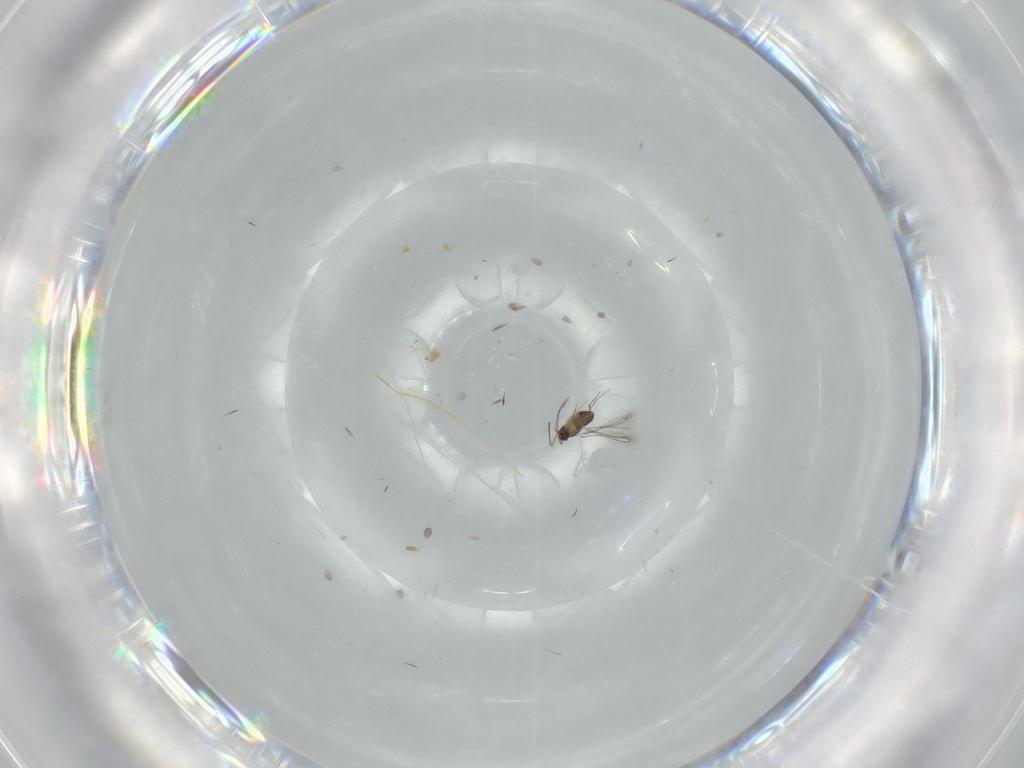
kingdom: Animalia
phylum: Arthropoda
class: Insecta
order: Hymenoptera
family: Mymaridae
